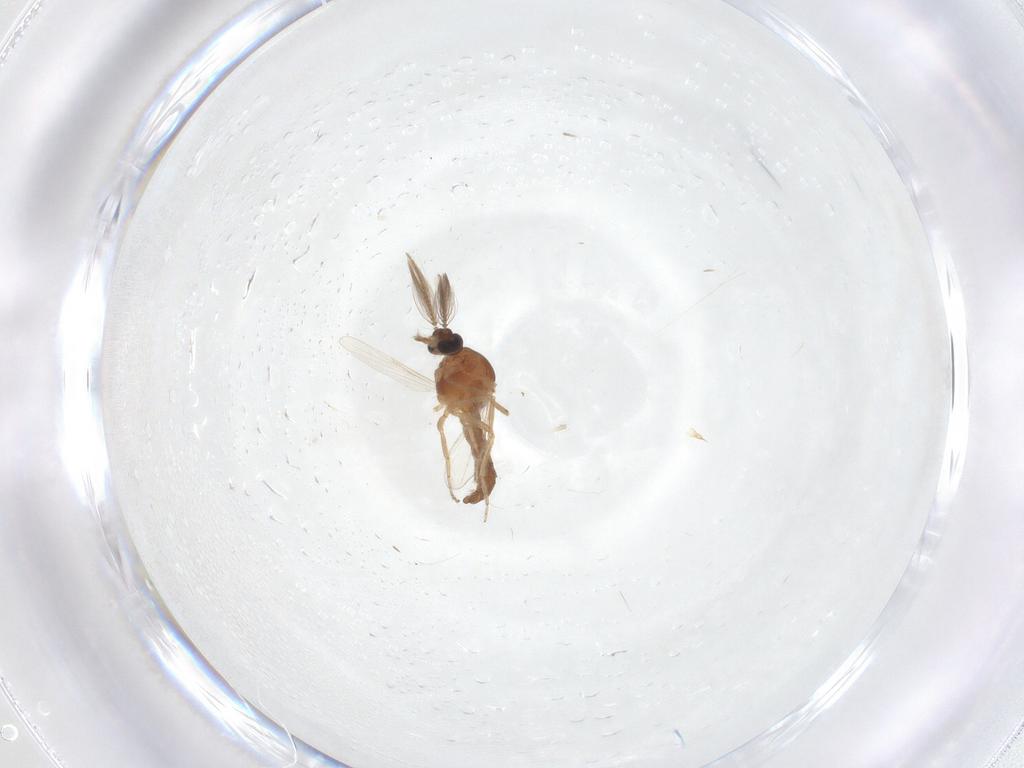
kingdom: Animalia
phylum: Arthropoda
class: Insecta
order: Diptera
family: Ceratopogonidae
